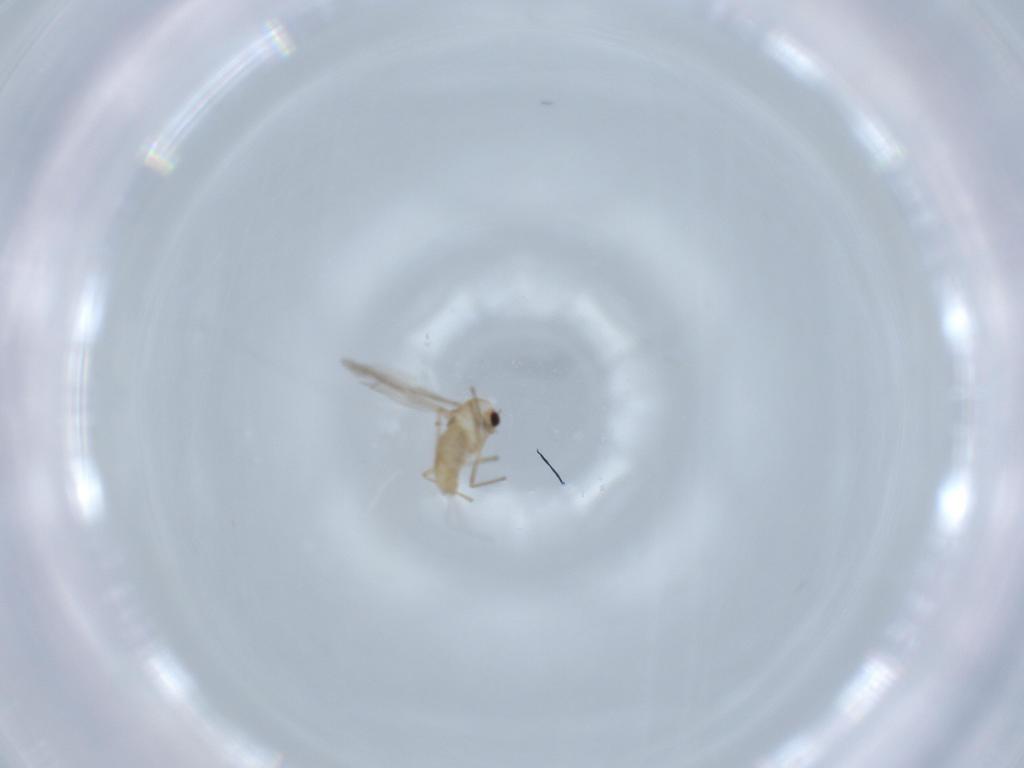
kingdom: Animalia
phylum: Arthropoda
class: Insecta
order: Diptera
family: Chironomidae
